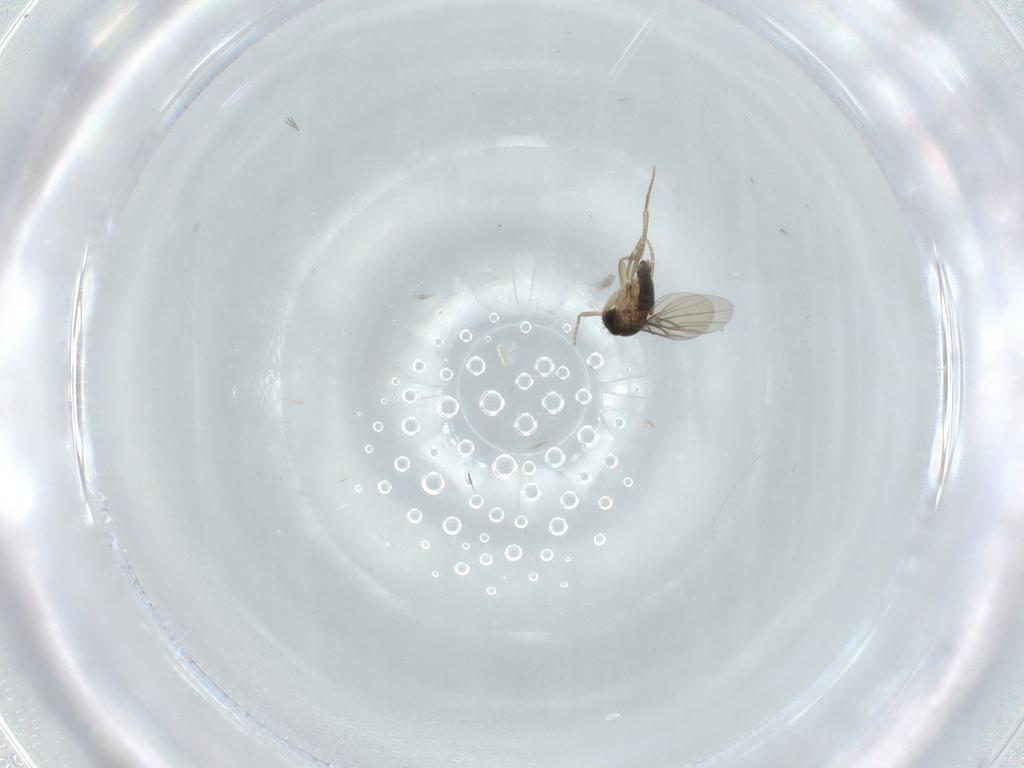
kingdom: Animalia
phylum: Arthropoda
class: Insecta
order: Diptera
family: Phoridae
